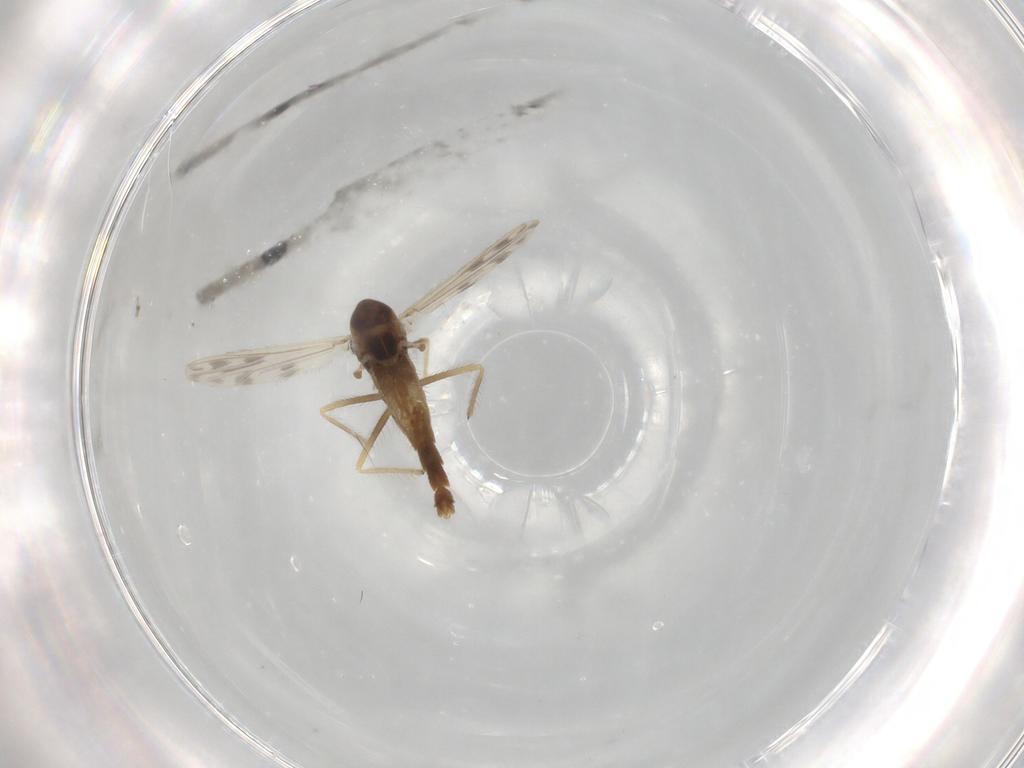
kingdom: Animalia
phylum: Arthropoda
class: Insecta
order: Diptera
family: Chironomidae
